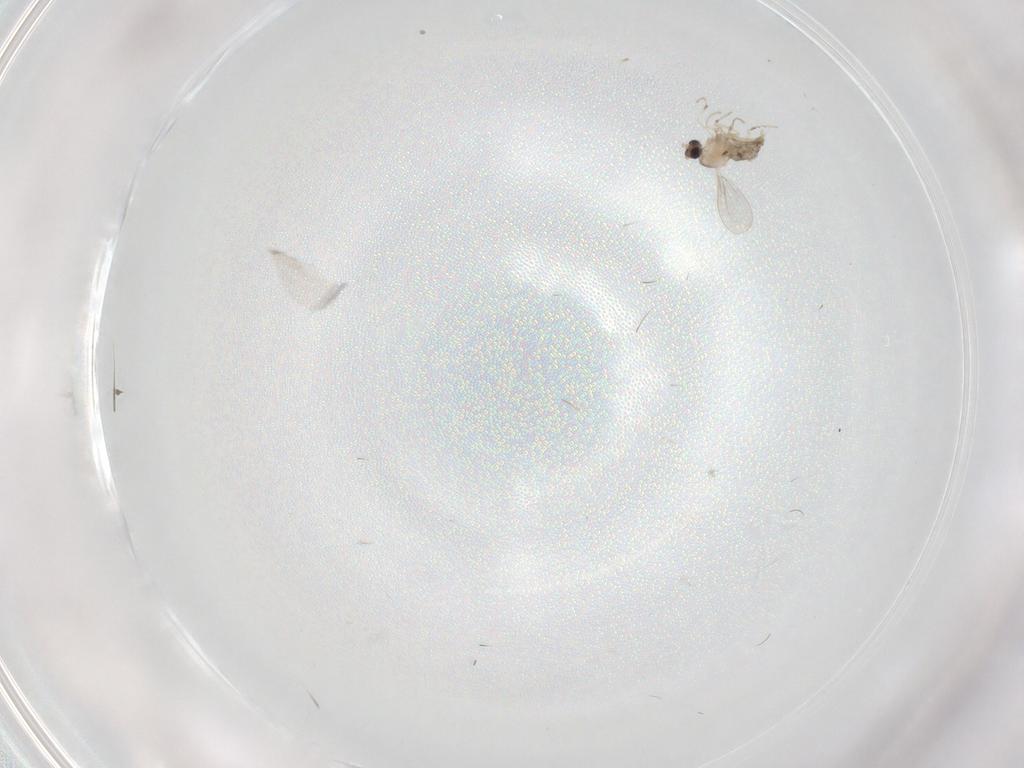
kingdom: Animalia
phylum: Arthropoda
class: Insecta
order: Diptera
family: Cecidomyiidae
